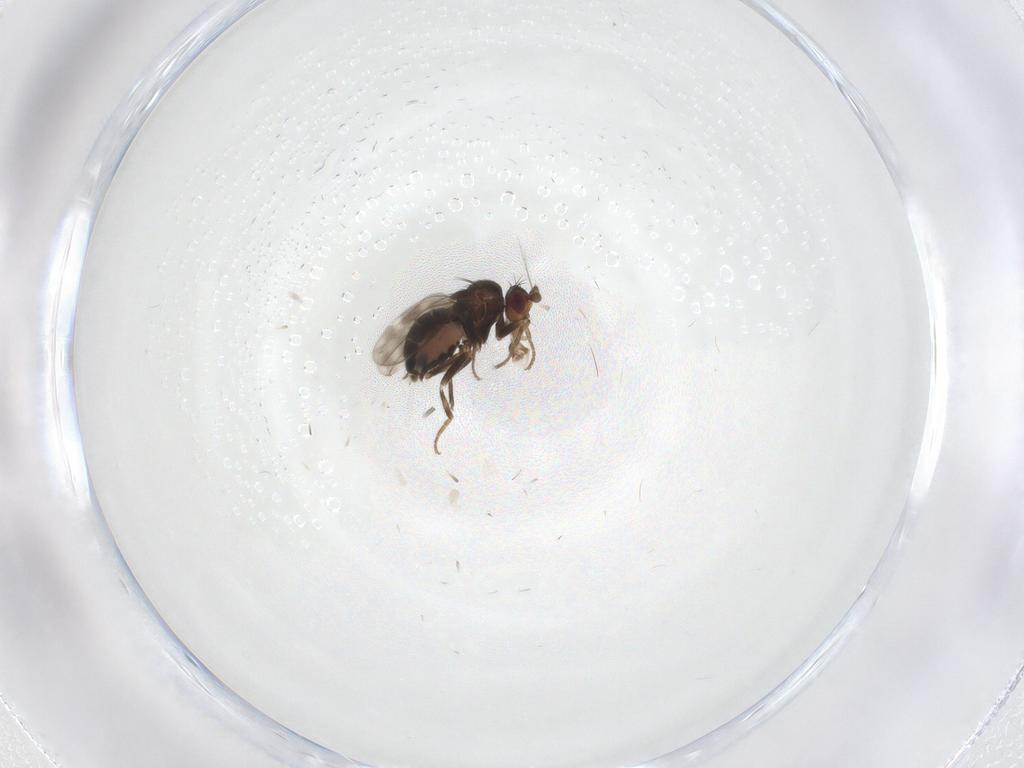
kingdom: Animalia
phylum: Arthropoda
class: Insecta
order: Diptera
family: Sphaeroceridae
